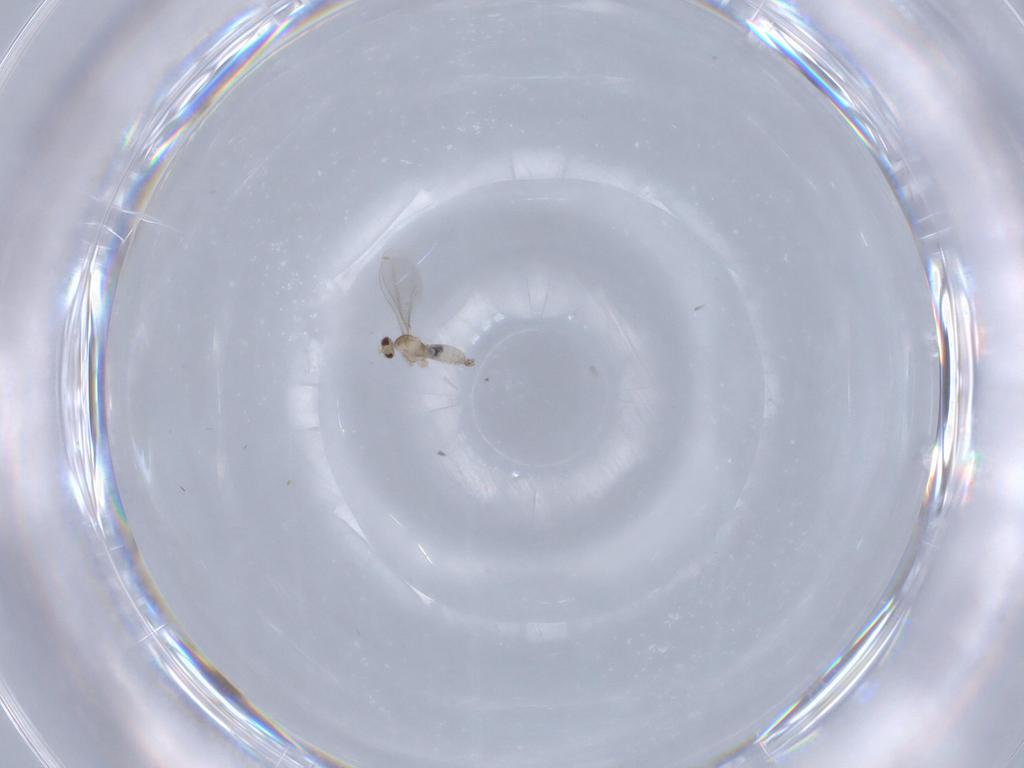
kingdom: Animalia
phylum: Arthropoda
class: Insecta
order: Diptera
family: Cecidomyiidae
